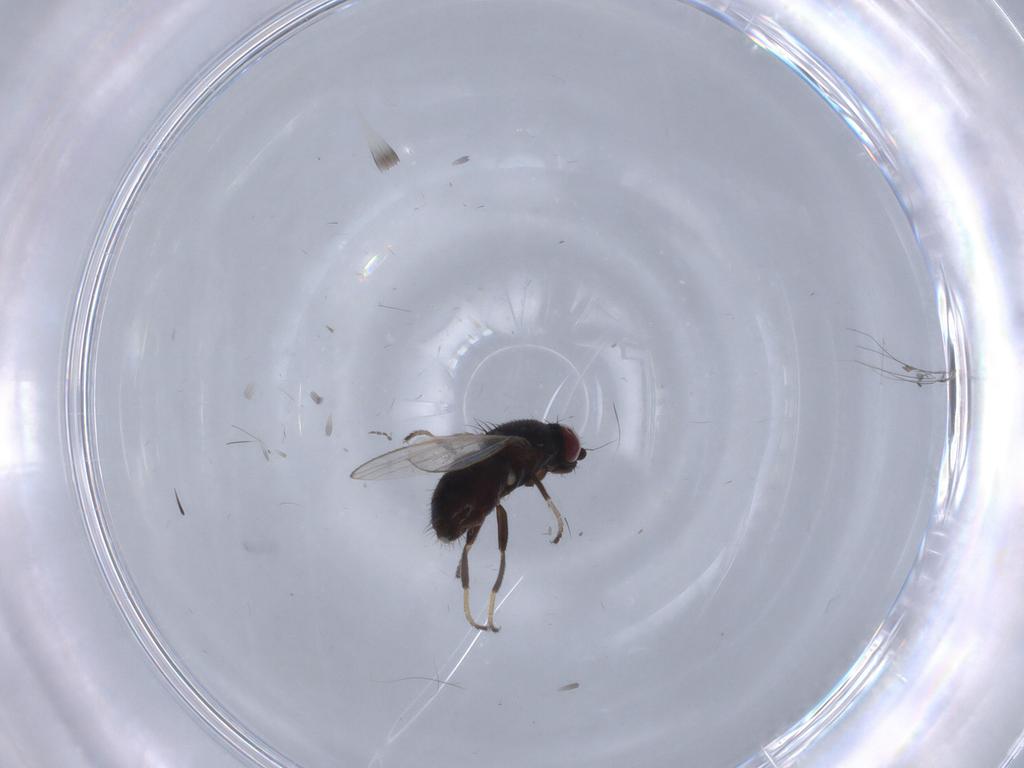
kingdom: Animalia
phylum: Arthropoda
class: Insecta
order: Diptera
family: Milichiidae
